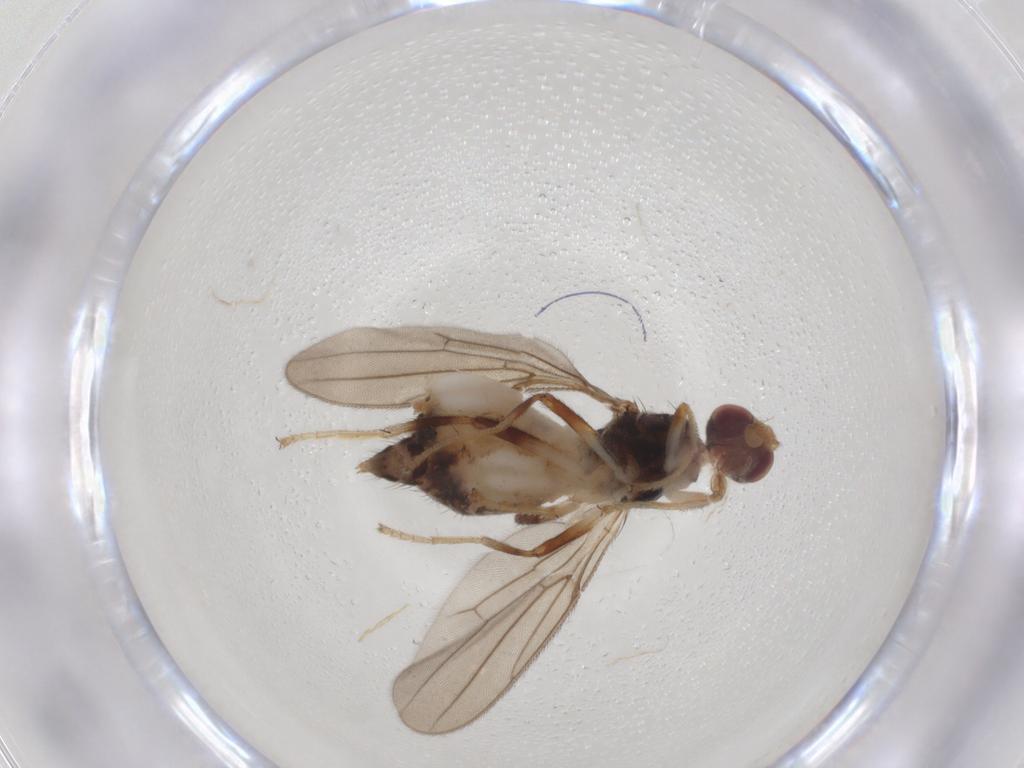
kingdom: Animalia
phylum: Arthropoda
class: Insecta
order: Diptera
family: Chloropidae
